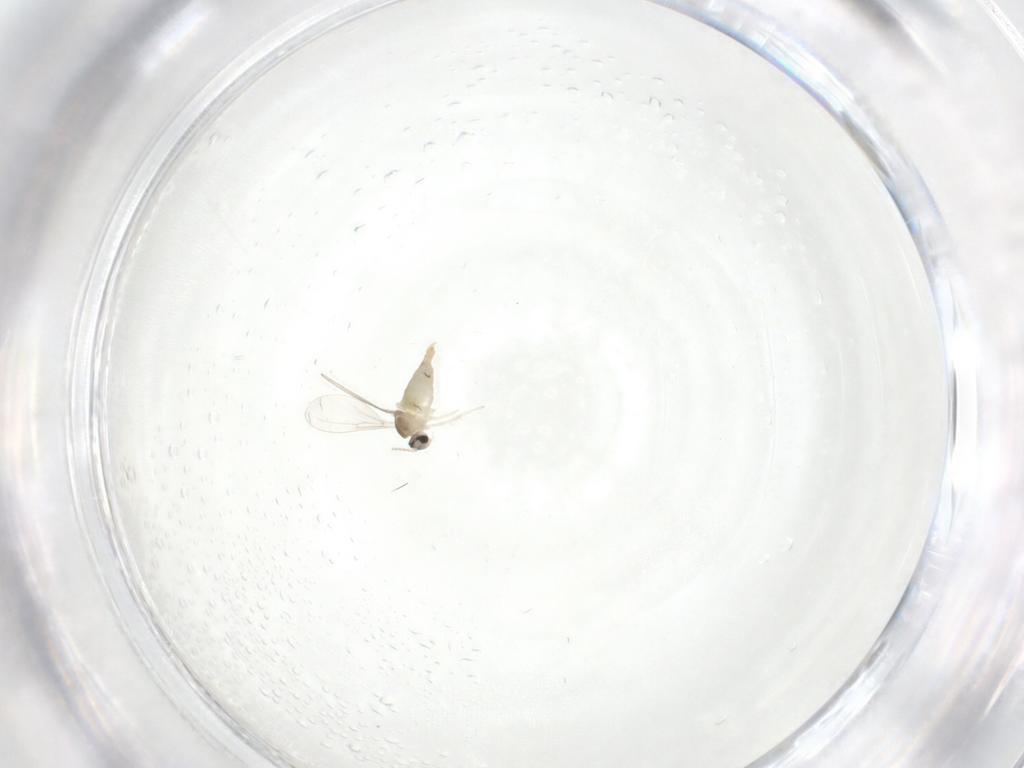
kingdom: Animalia
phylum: Arthropoda
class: Insecta
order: Diptera
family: Cecidomyiidae
